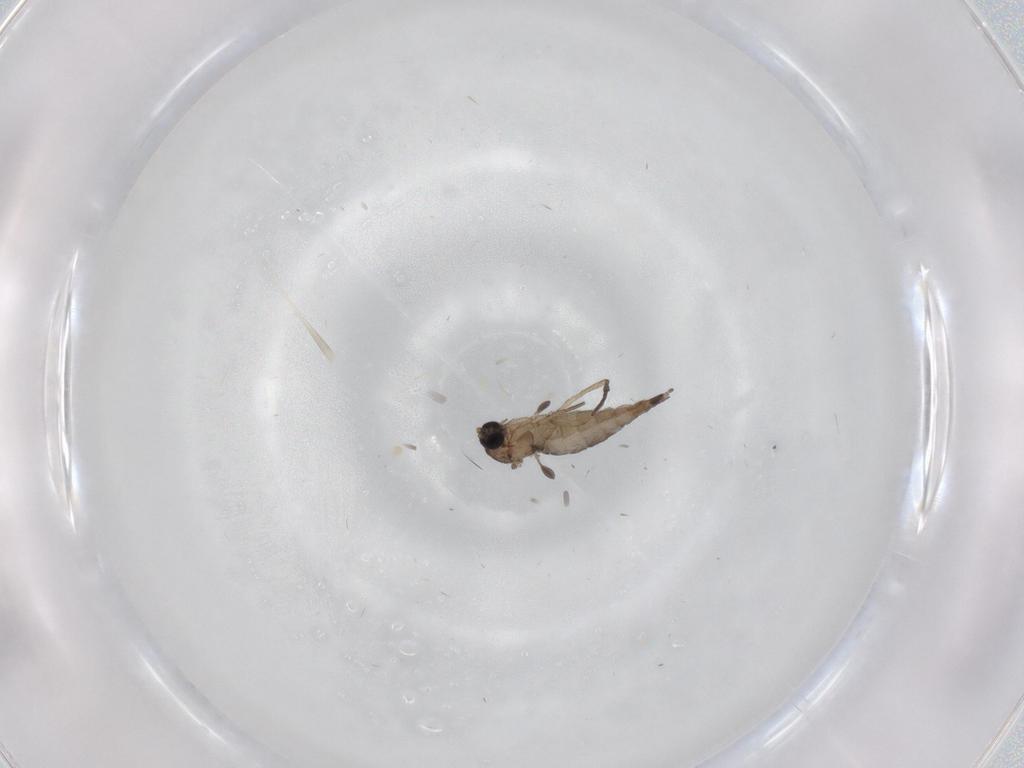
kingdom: Animalia
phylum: Arthropoda
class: Insecta
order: Diptera
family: Sciaridae
